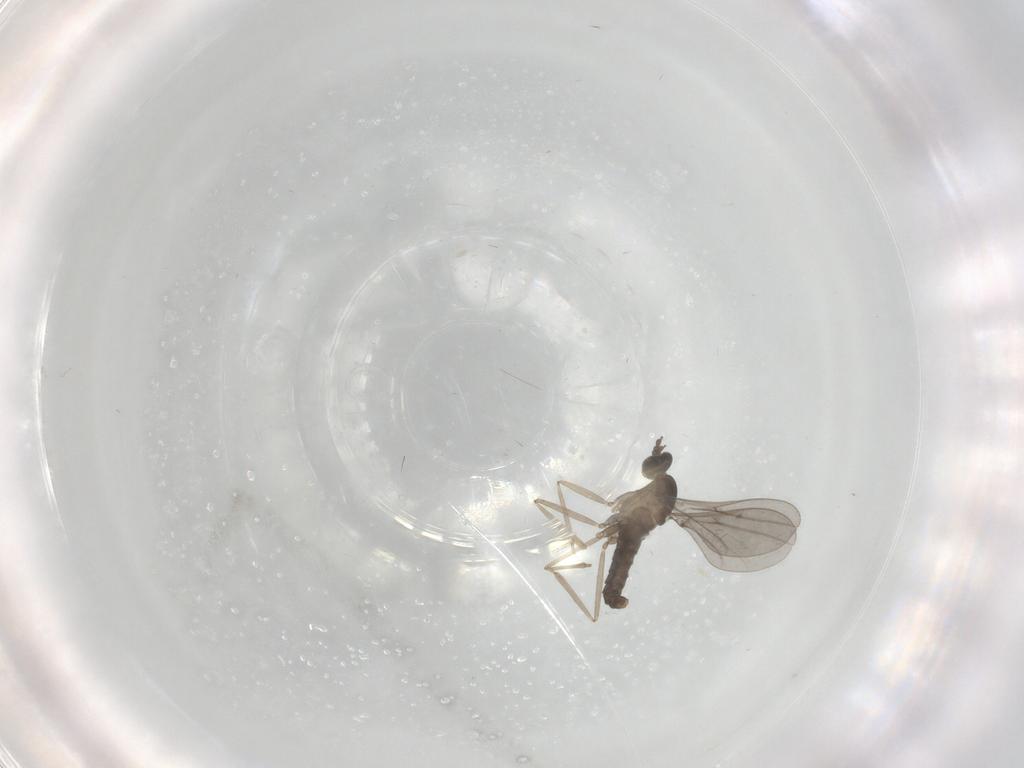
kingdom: Animalia
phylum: Arthropoda
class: Insecta
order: Diptera
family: Cecidomyiidae
